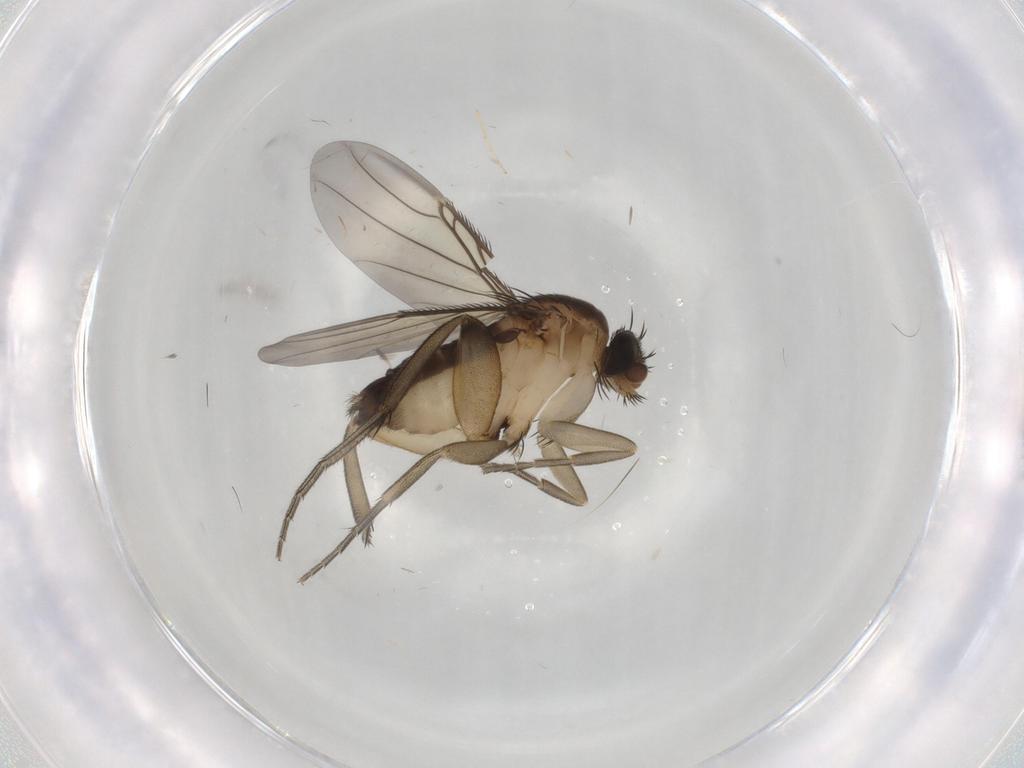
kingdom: Animalia
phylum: Arthropoda
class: Insecta
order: Diptera
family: Cecidomyiidae
